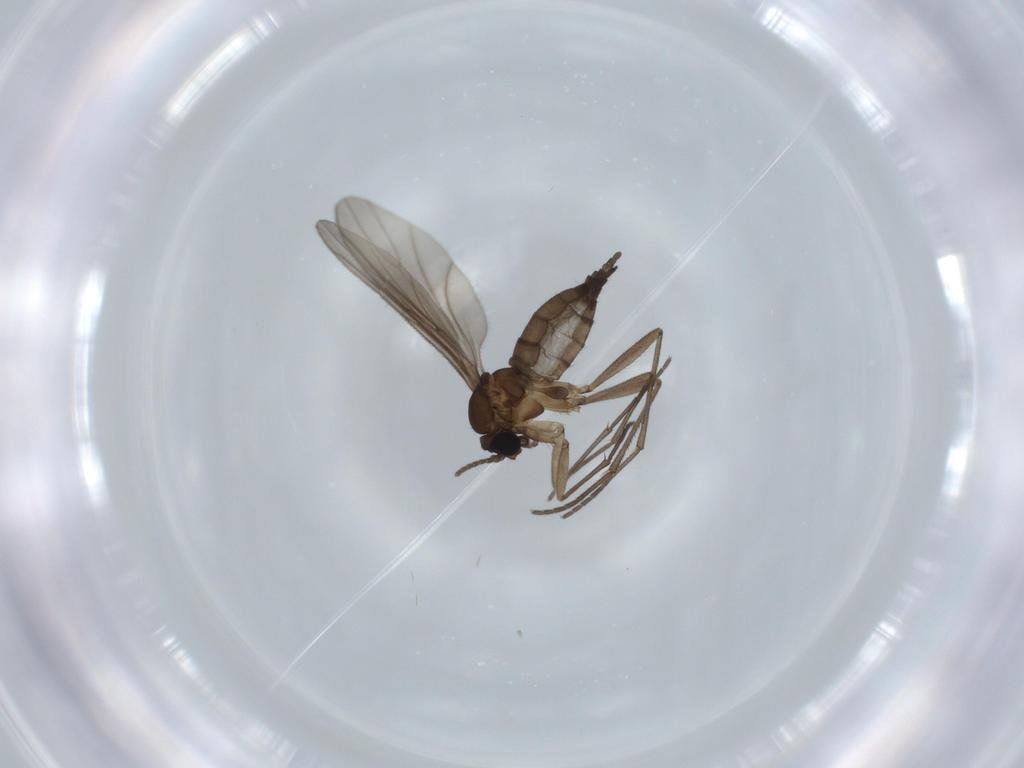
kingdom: Animalia
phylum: Arthropoda
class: Insecta
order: Diptera
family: Sciaridae
